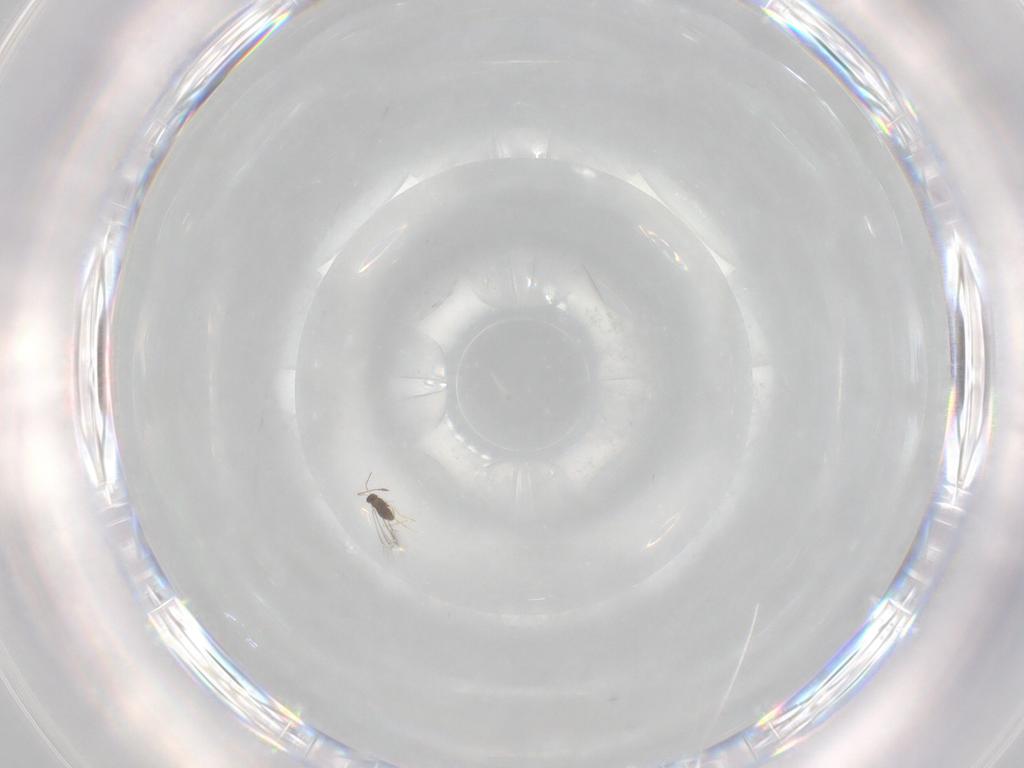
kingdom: Animalia
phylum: Arthropoda
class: Insecta
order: Hymenoptera
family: Mymaridae
